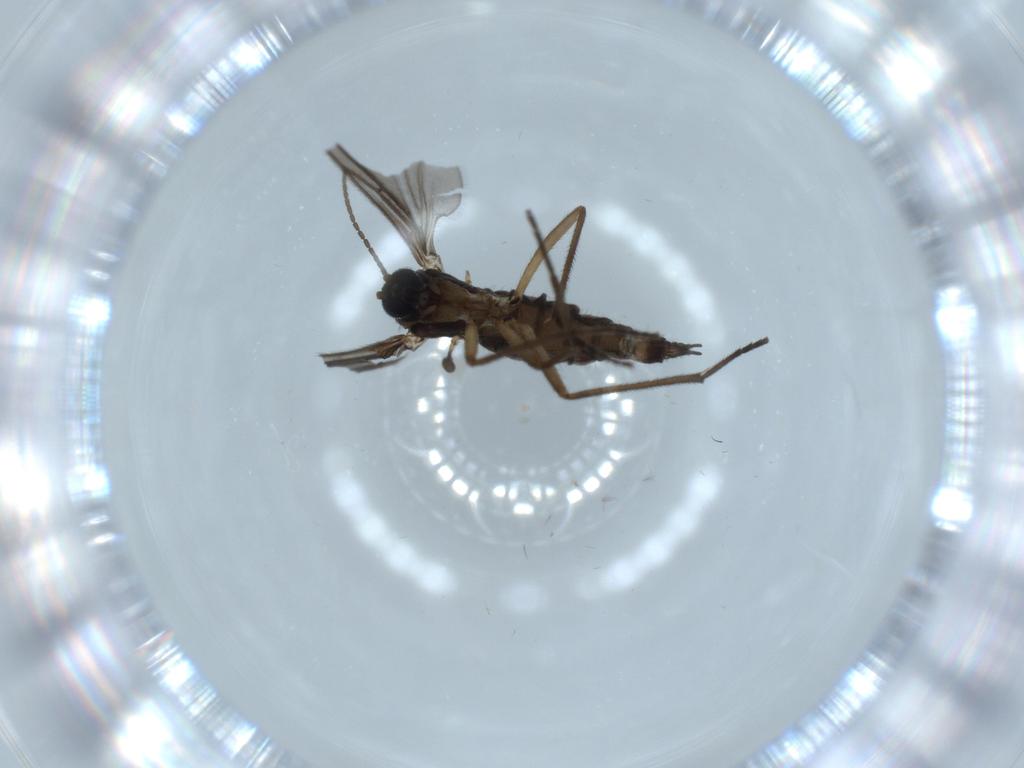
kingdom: Animalia
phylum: Arthropoda
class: Insecta
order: Diptera
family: Sciaridae
